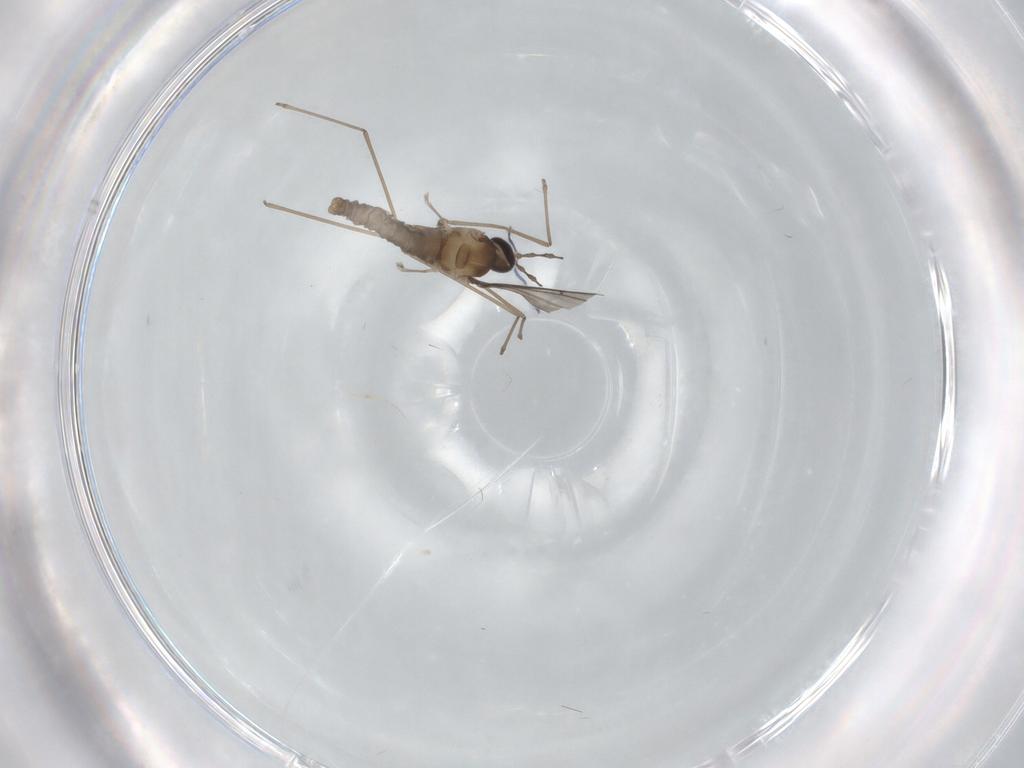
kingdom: Animalia
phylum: Arthropoda
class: Insecta
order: Diptera
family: Cecidomyiidae
